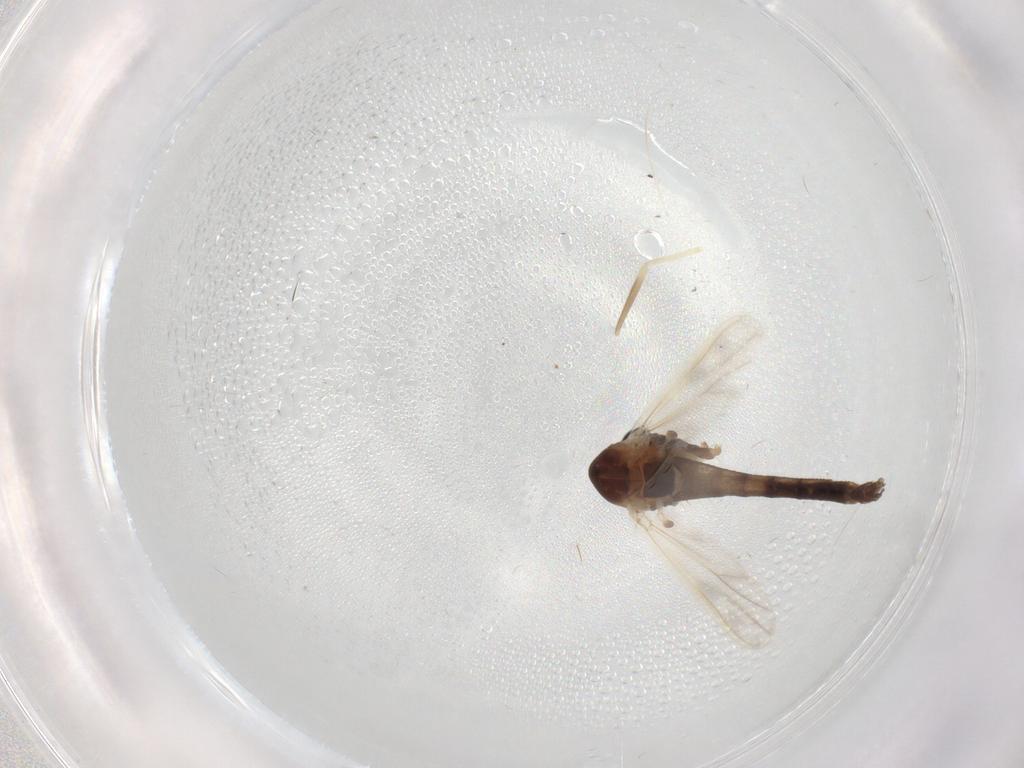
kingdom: Animalia
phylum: Arthropoda
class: Insecta
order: Diptera
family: Chironomidae
